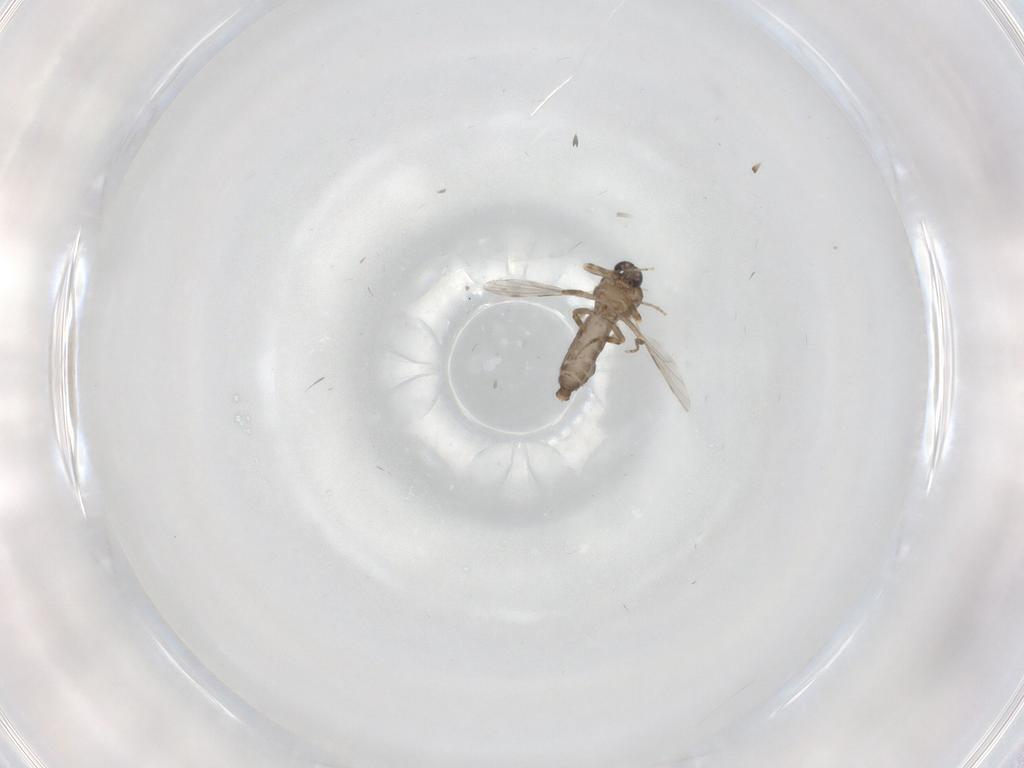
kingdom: Animalia
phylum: Arthropoda
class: Insecta
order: Diptera
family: Ceratopogonidae
